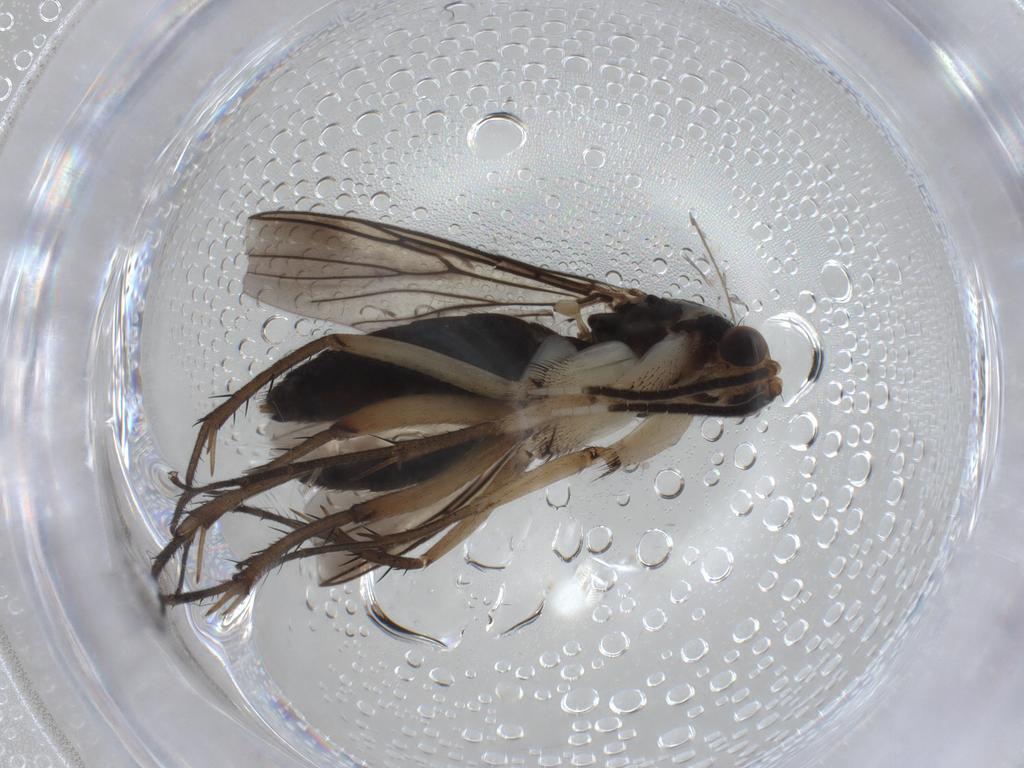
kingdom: Animalia
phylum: Arthropoda
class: Insecta
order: Diptera
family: Mycetophilidae
